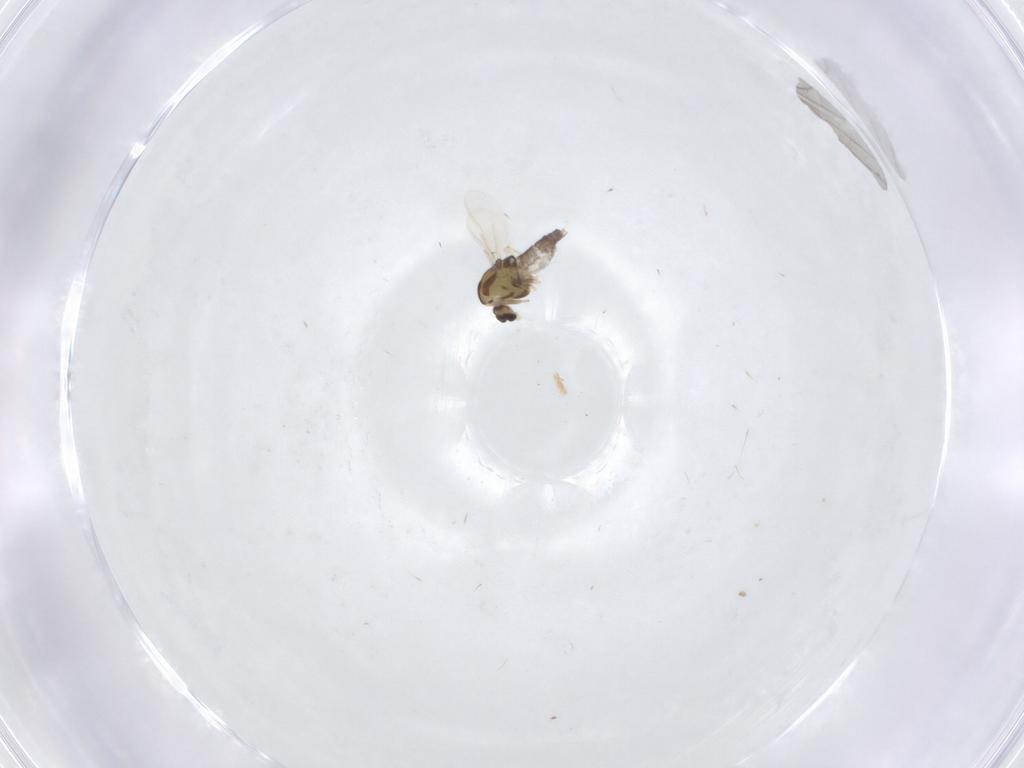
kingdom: Animalia
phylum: Arthropoda
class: Insecta
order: Diptera
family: Chironomidae
